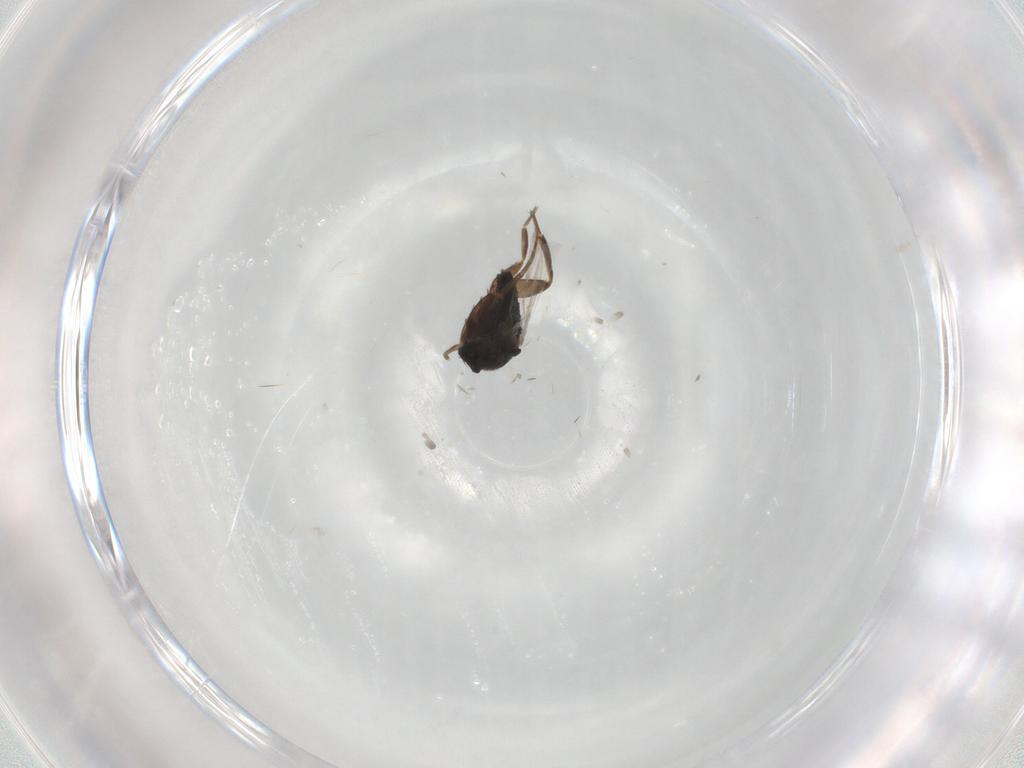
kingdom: Animalia
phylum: Arthropoda
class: Insecta
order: Diptera
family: Phoridae
